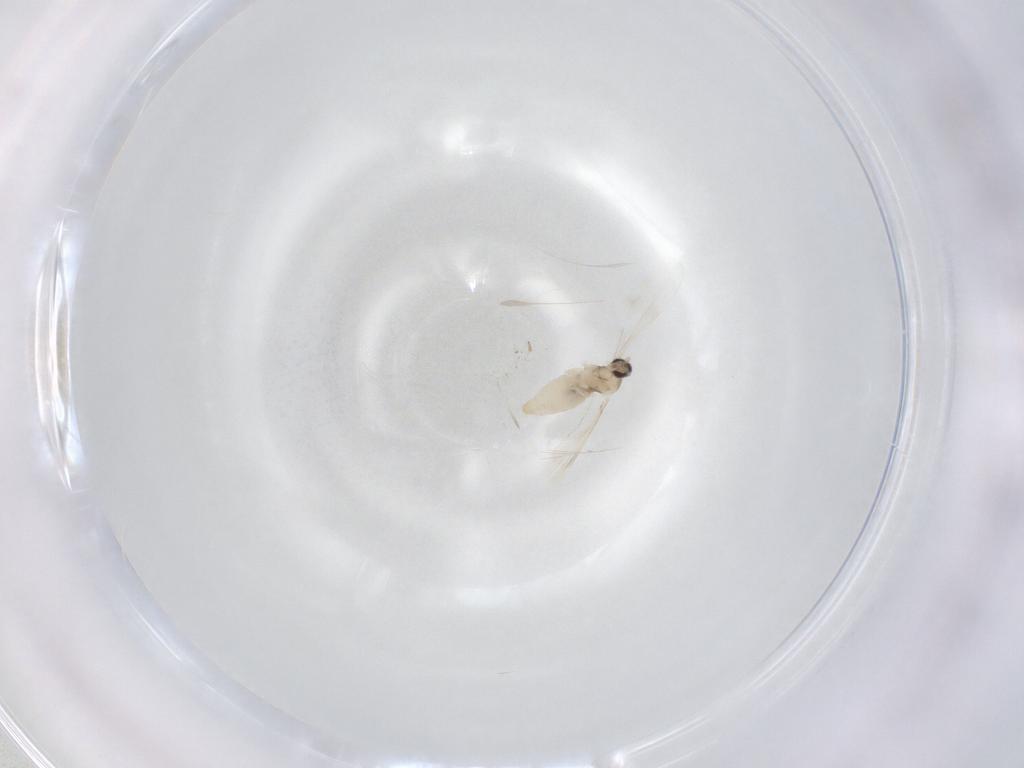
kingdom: Animalia
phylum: Arthropoda
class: Insecta
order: Diptera
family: Cecidomyiidae
